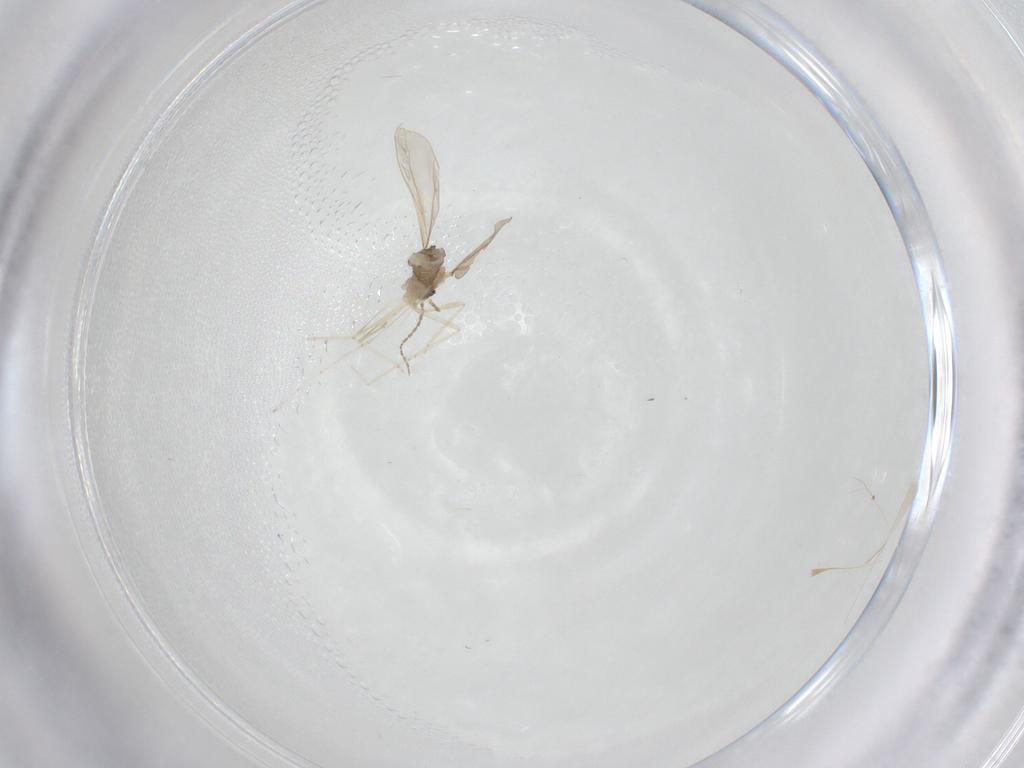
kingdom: Animalia
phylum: Arthropoda
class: Insecta
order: Diptera
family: Cecidomyiidae
